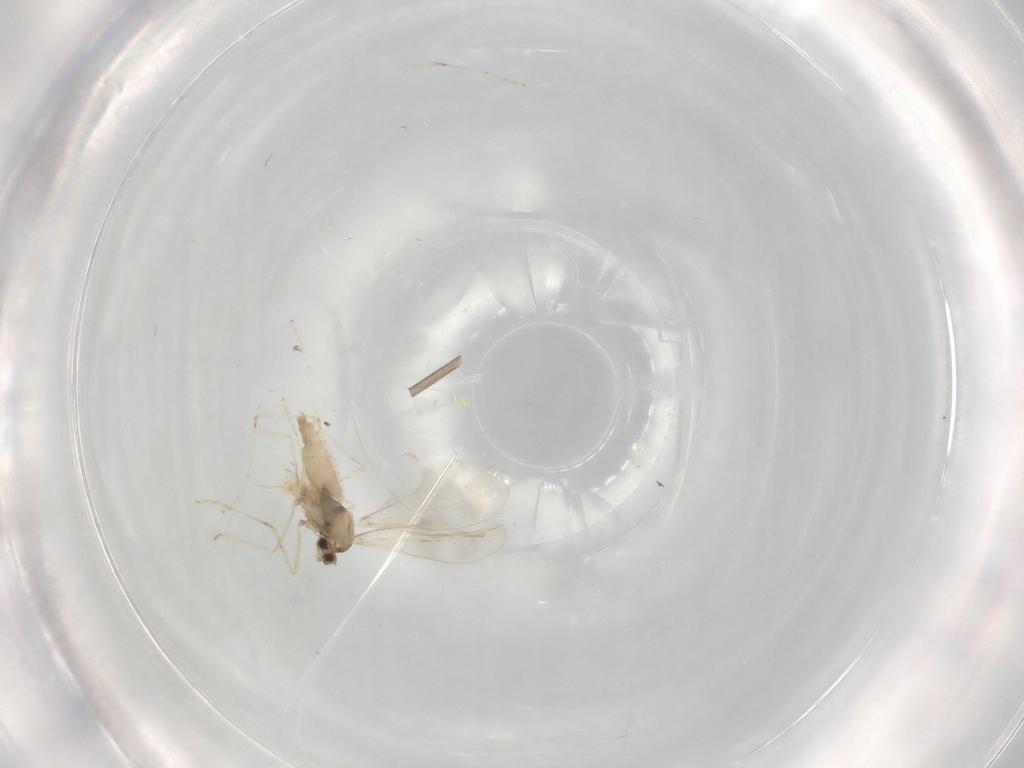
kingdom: Animalia
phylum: Arthropoda
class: Insecta
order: Diptera
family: Cecidomyiidae
